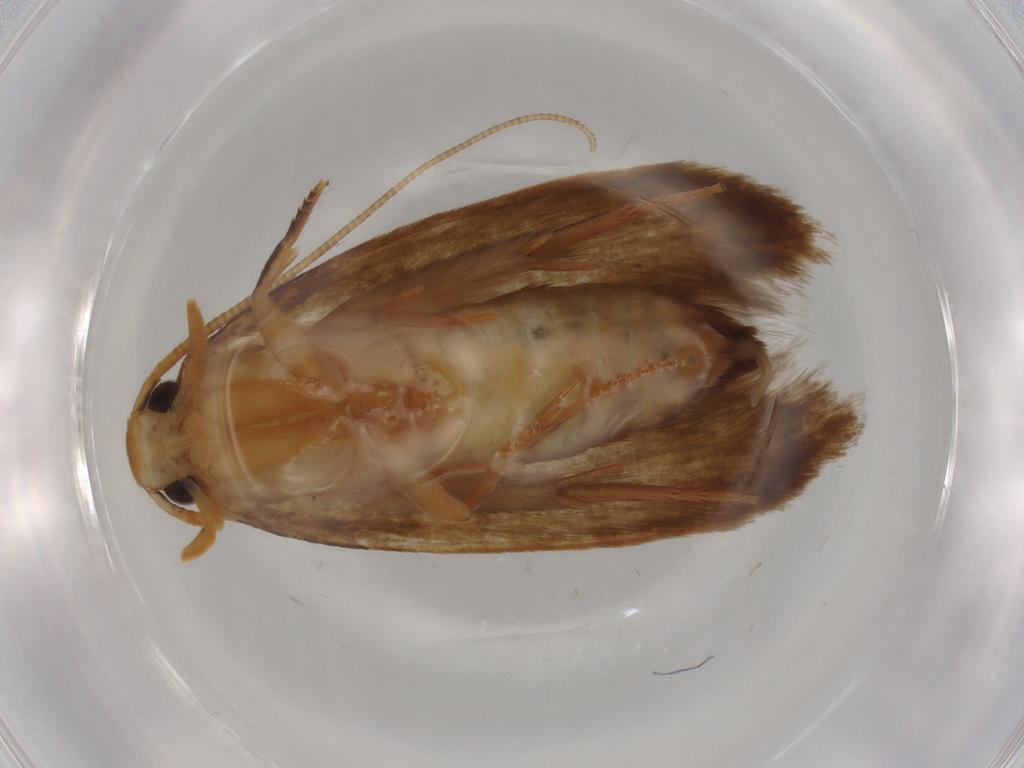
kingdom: Animalia
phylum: Arthropoda
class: Insecta
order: Lepidoptera
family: Tineidae
